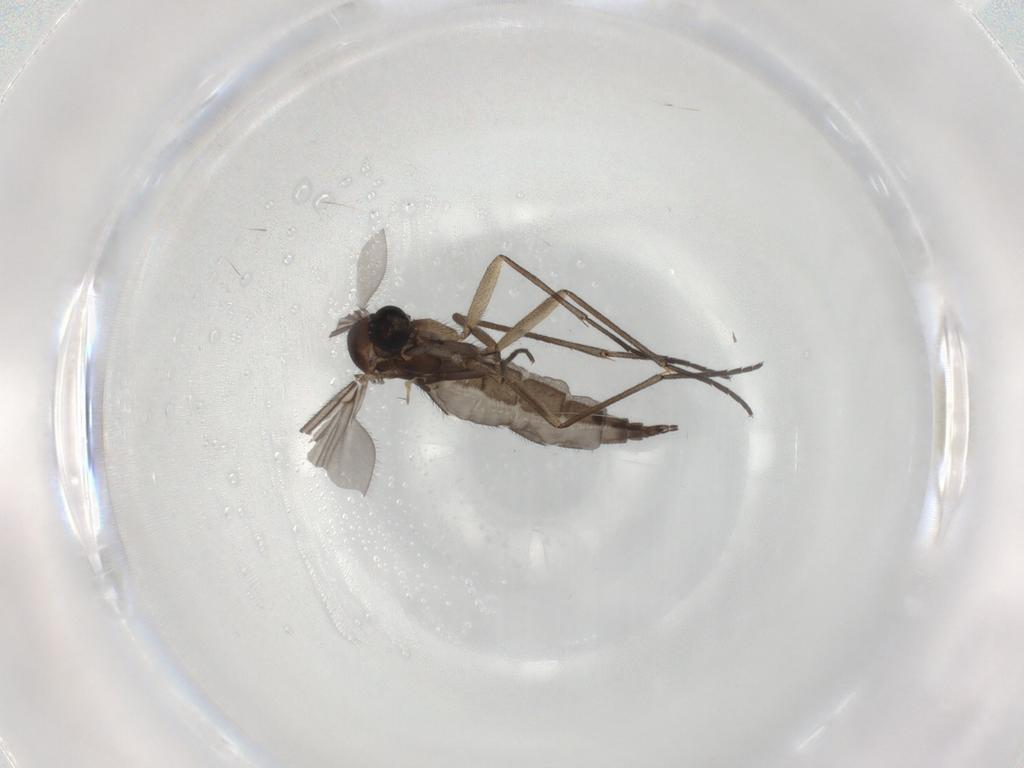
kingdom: Animalia
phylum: Arthropoda
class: Insecta
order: Diptera
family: Sciaridae
